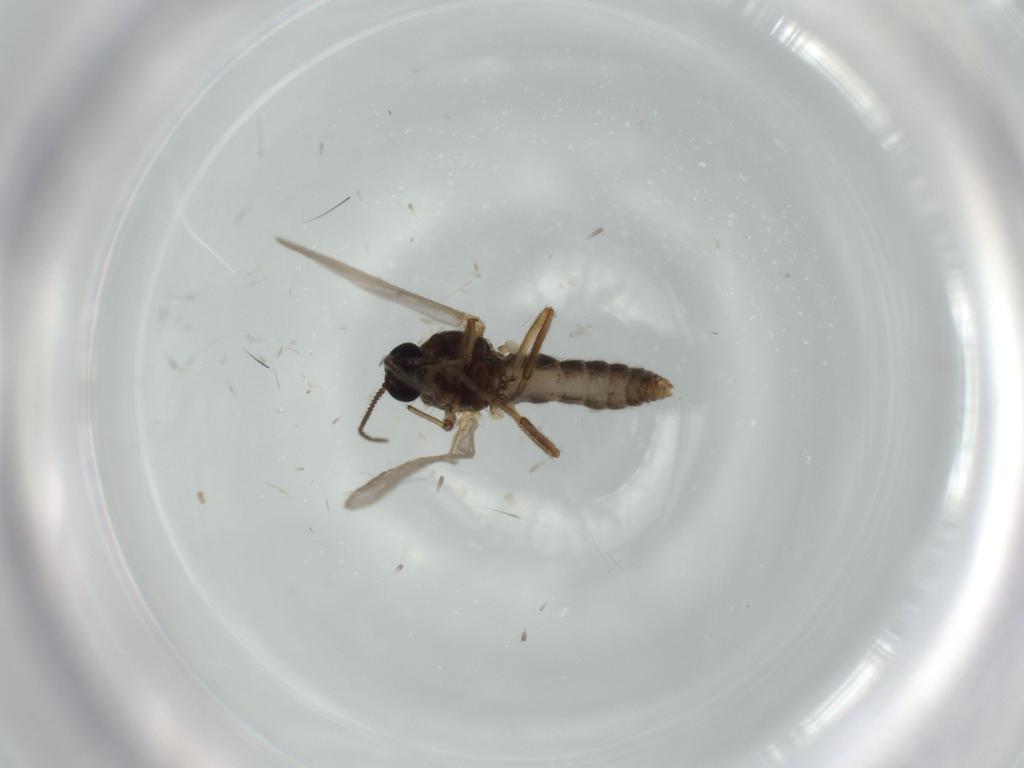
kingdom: Animalia
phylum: Arthropoda
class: Insecta
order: Diptera
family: Ceratopogonidae
